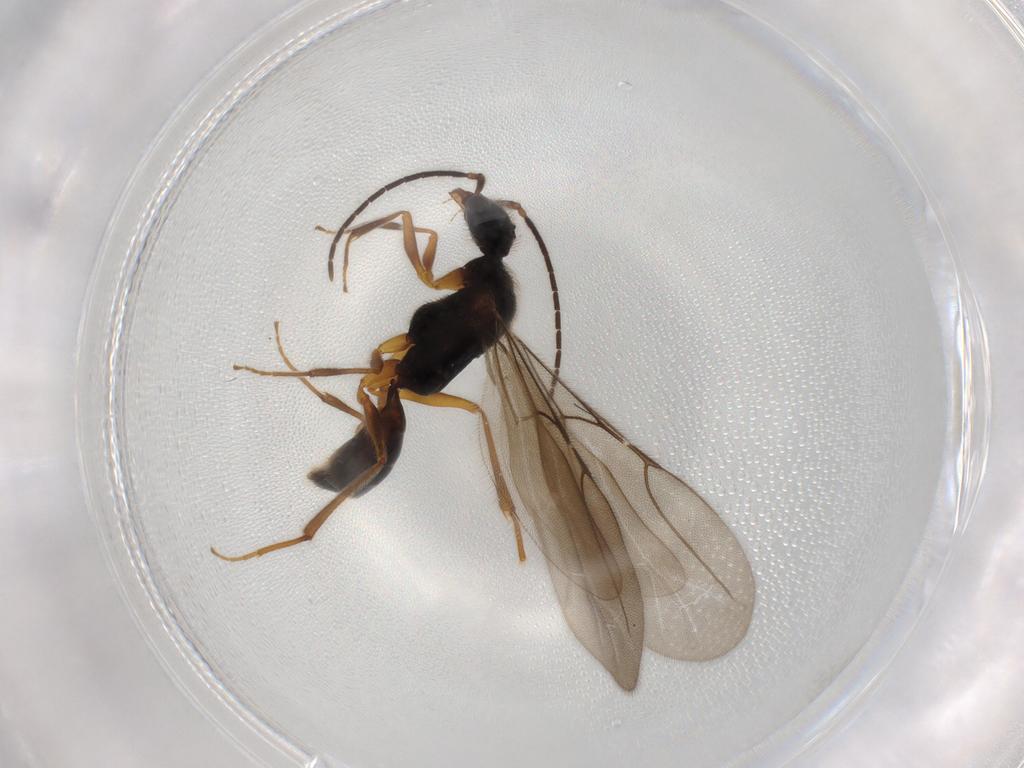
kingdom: Animalia
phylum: Arthropoda
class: Insecta
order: Hymenoptera
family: Bethylidae
